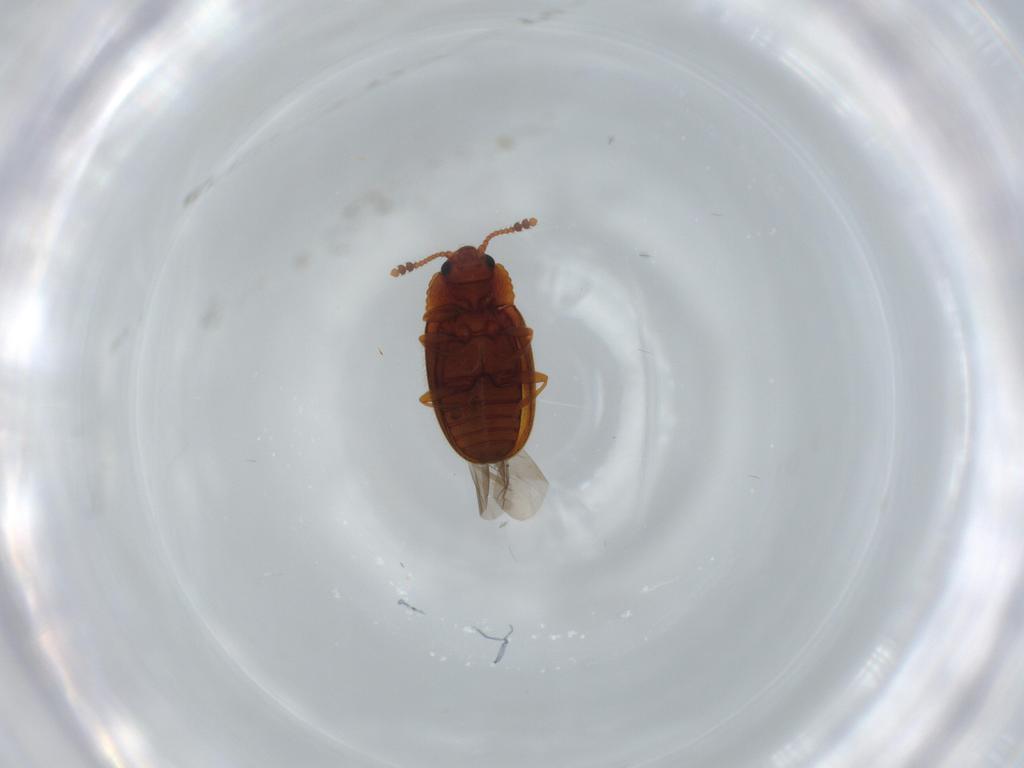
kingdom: Animalia
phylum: Arthropoda
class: Insecta
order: Coleoptera
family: Erotylidae
